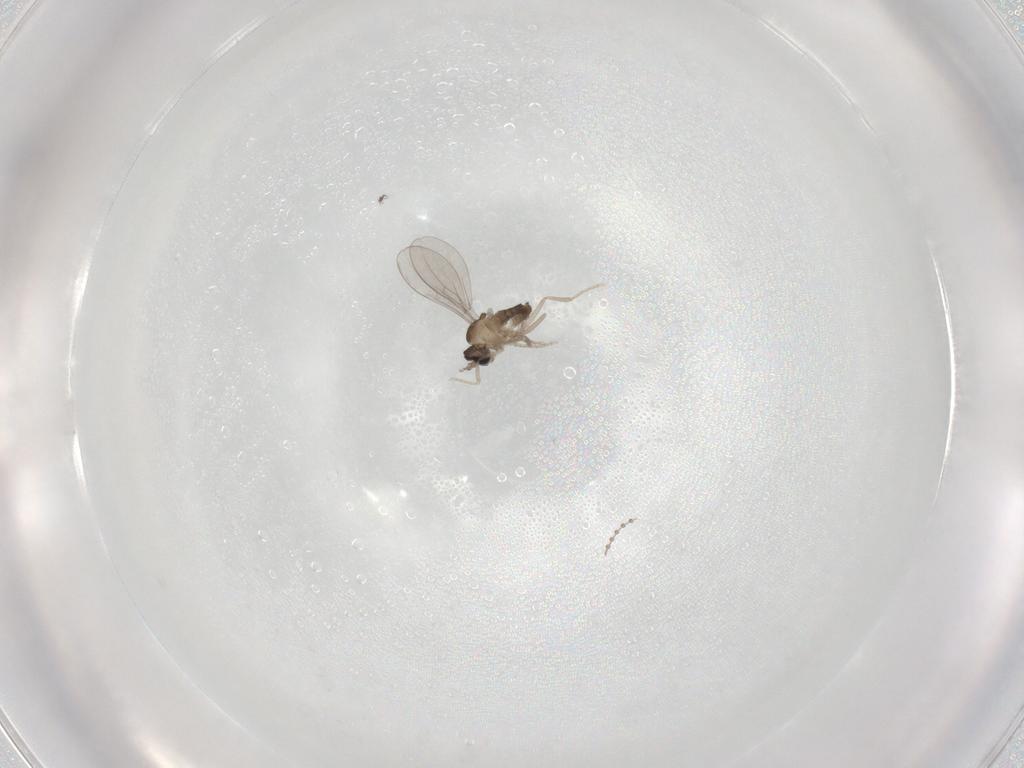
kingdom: Animalia
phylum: Arthropoda
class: Insecta
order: Diptera
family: Cecidomyiidae
